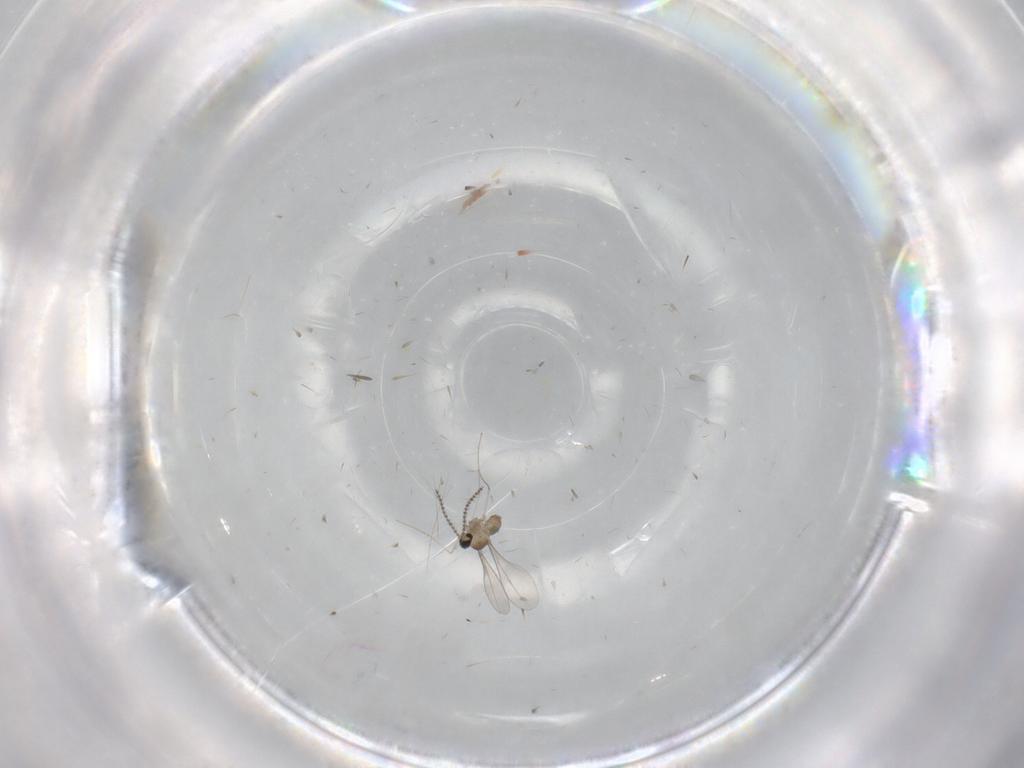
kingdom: Animalia
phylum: Arthropoda
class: Insecta
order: Diptera
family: Cecidomyiidae
